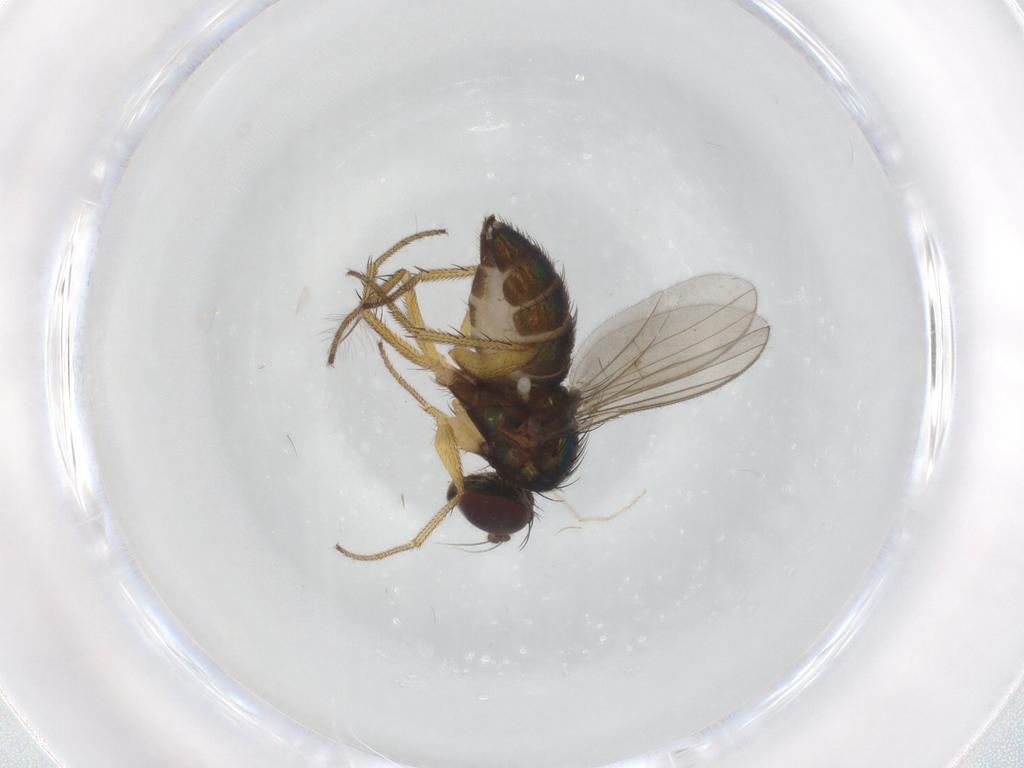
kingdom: Animalia
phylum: Arthropoda
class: Insecta
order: Diptera
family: Dolichopodidae
